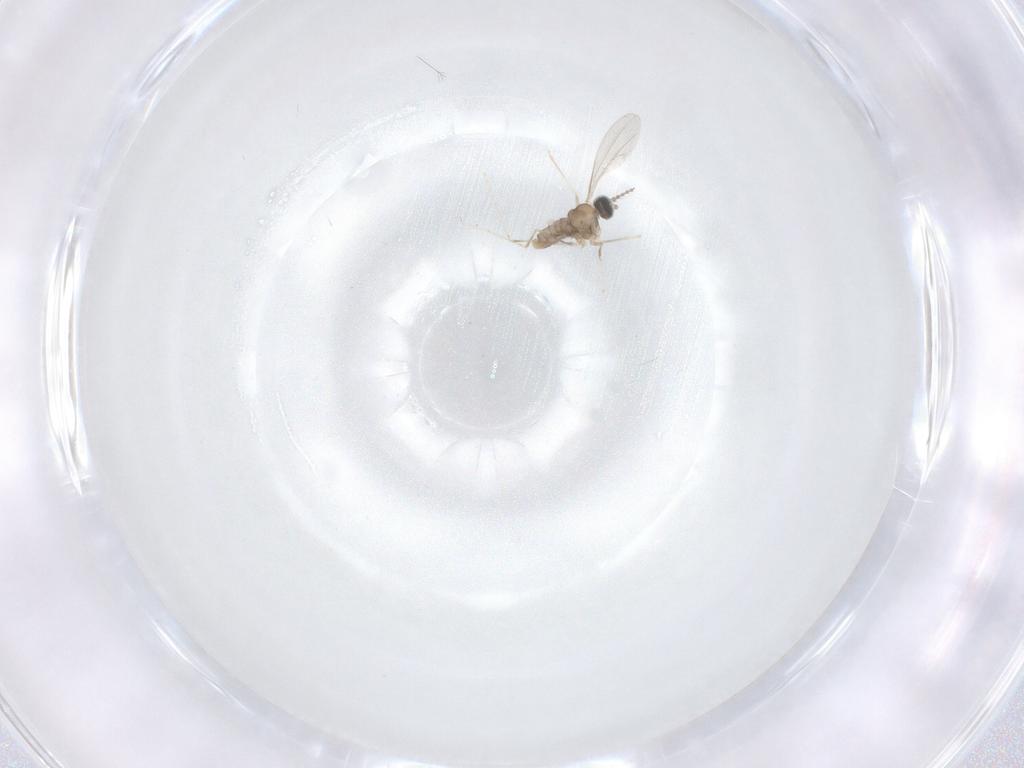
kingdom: Animalia
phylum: Arthropoda
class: Insecta
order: Diptera
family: Cecidomyiidae
